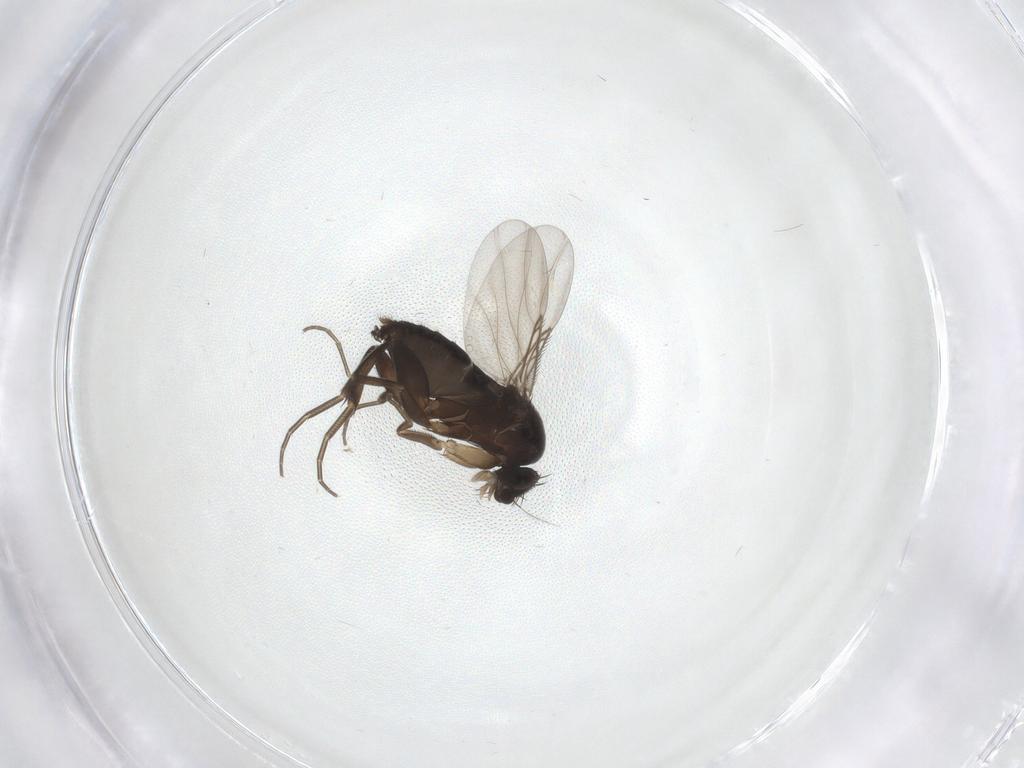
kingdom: Animalia
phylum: Arthropoda
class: Insecta
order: Diptera
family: Phoridae
